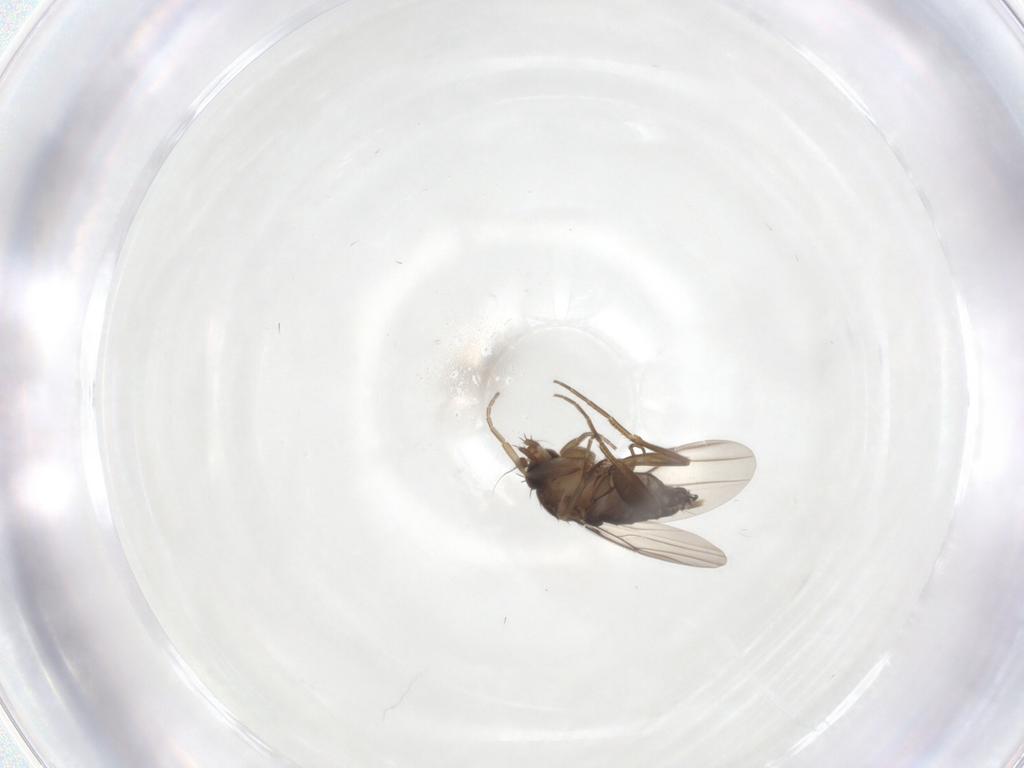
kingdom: Animalia
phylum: Arthropoda
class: Insecta
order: Diptera
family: Phoridae
